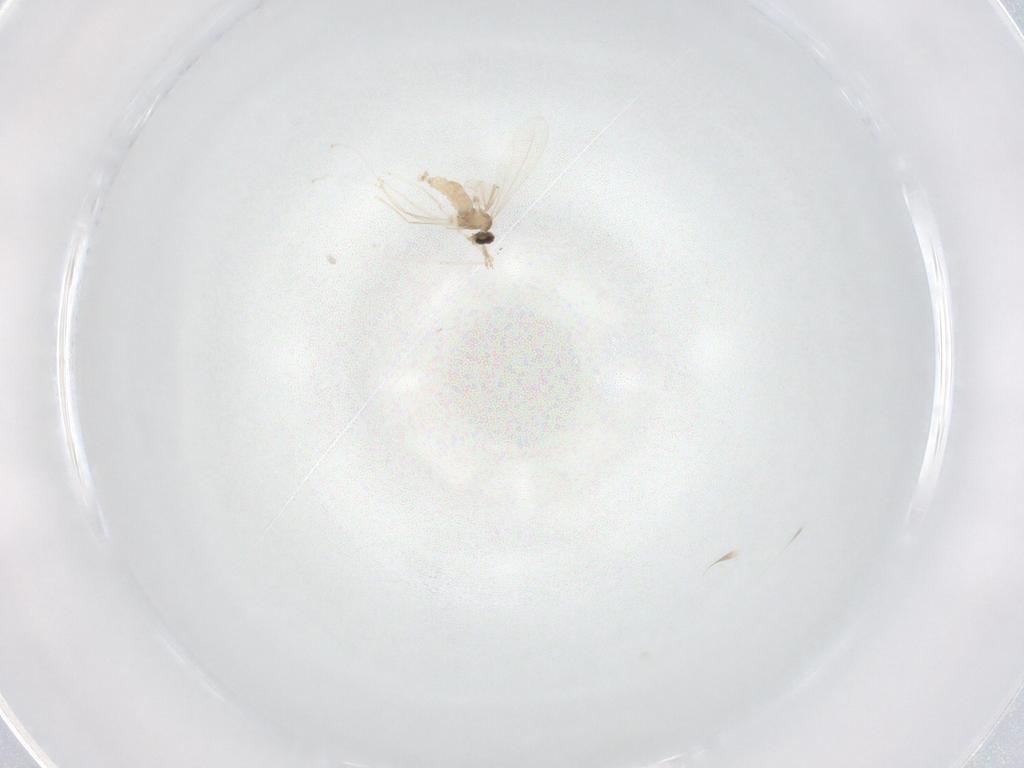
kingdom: Animalia
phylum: Arthropoda
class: Insecta
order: Diptera
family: Cecidomyiidae
